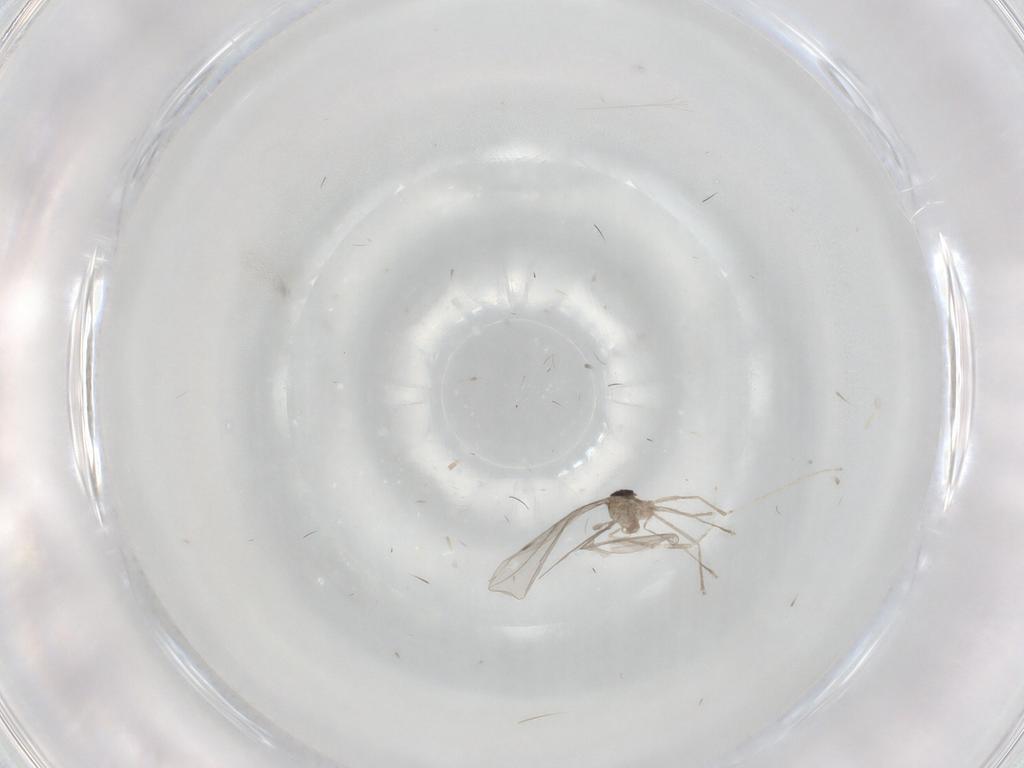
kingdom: Animalia
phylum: Arthropoda
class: Insecta
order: Diptera
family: Cecidomyiidae
